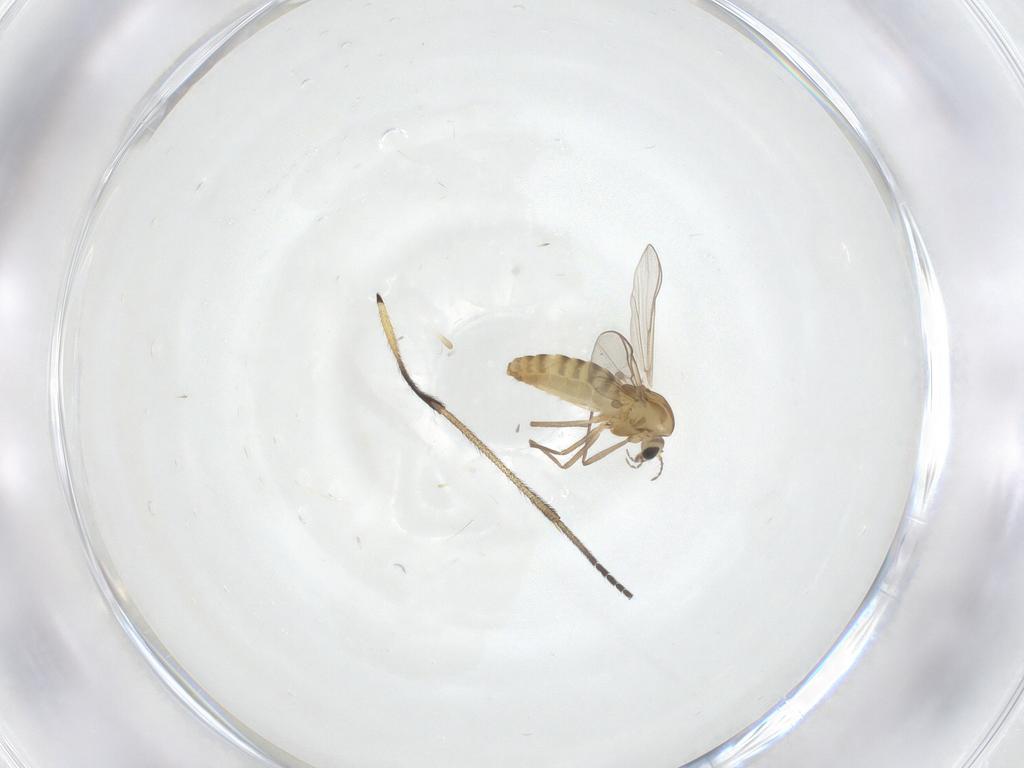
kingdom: Animalia
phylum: Arthropoda
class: Insecta
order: Diptera
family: Chironomidae
